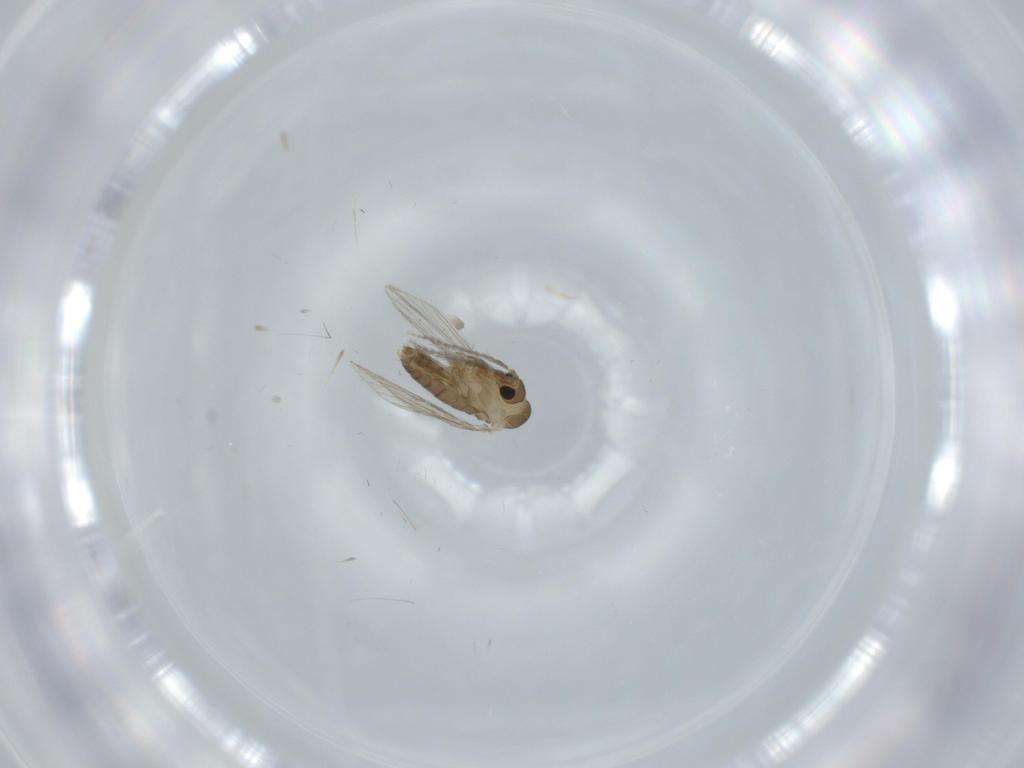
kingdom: Animalia
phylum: Arthropoda
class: Insecta
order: Diptera
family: Psychodidae
